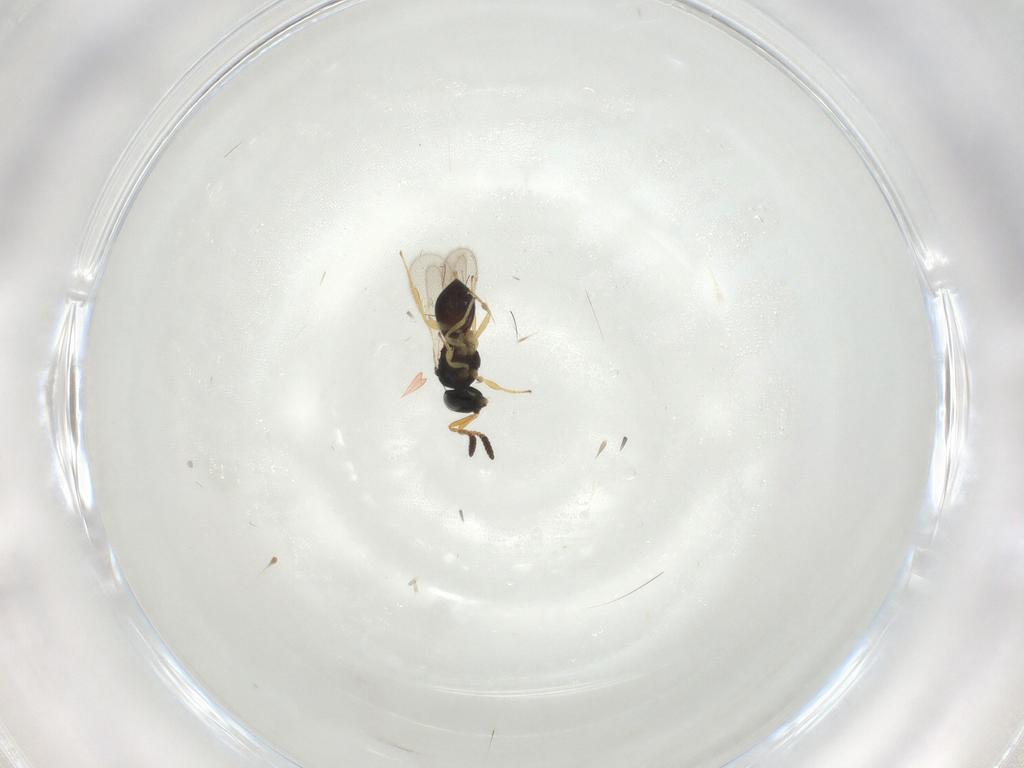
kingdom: Animalia
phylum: Arthropoda
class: Insecta
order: Hymenoptera
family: Scelionidae
